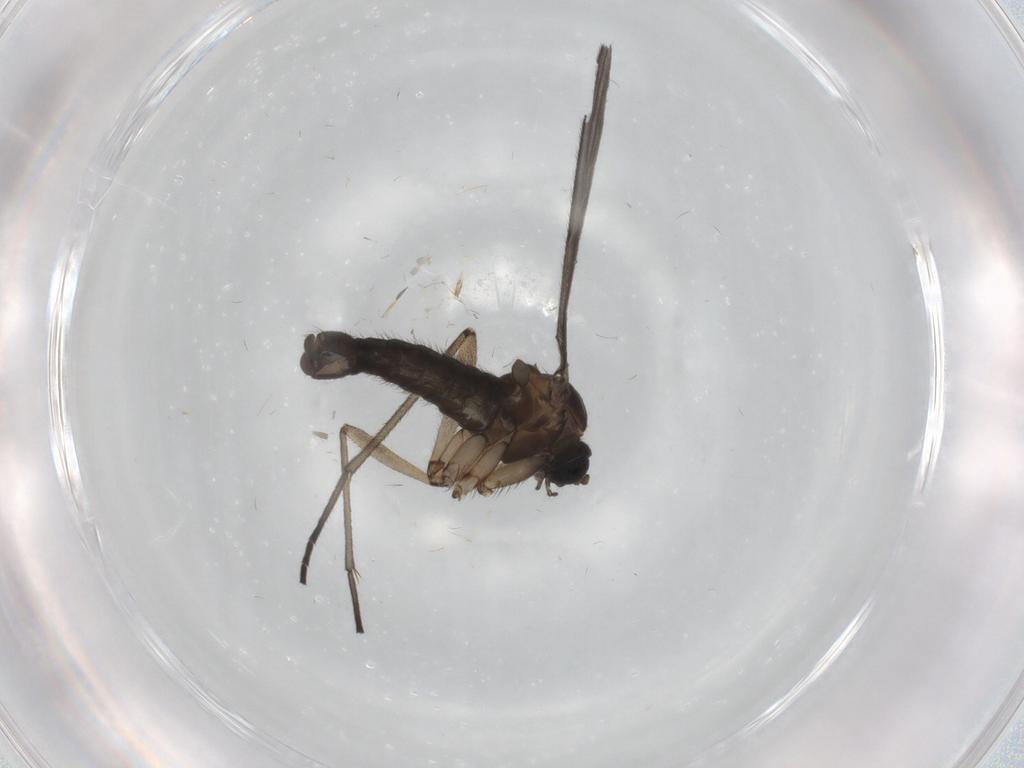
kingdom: Animalia
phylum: Arthropoda
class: Insecta
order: Diptera
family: Sciaridae
